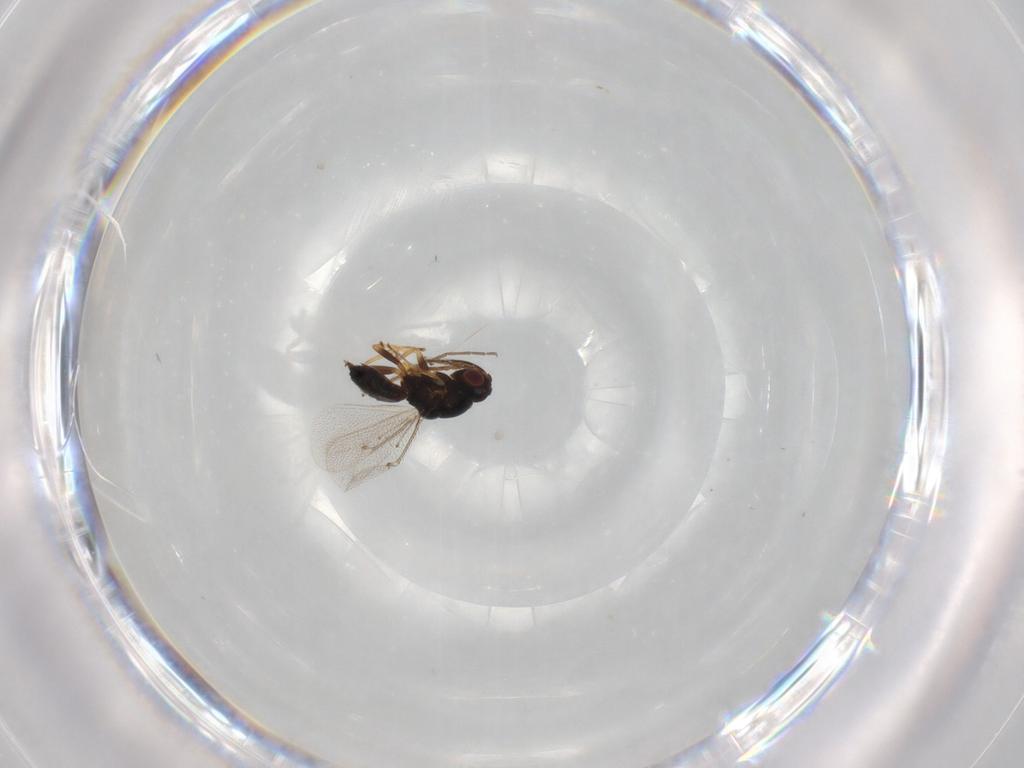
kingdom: Animalia
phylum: Arthropoda
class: Insecta
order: Hymenoptera
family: Eulophidae
